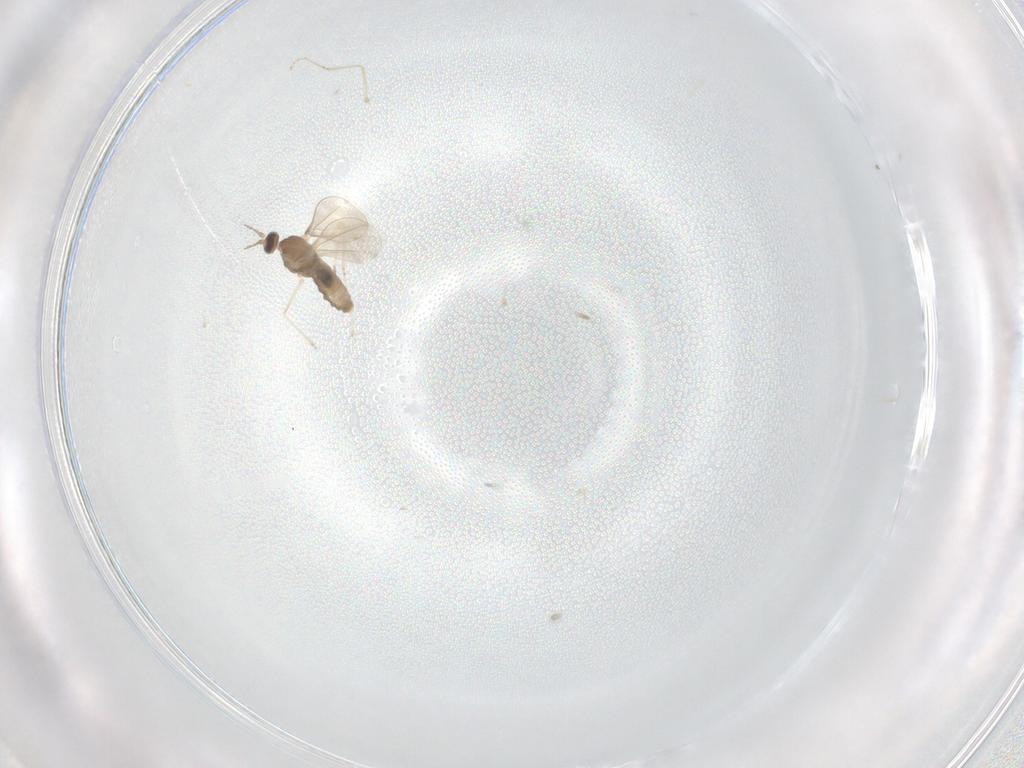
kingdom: Animalia
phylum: Arthropoda
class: Insecta
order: Diptera
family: Cecidomyiidae
